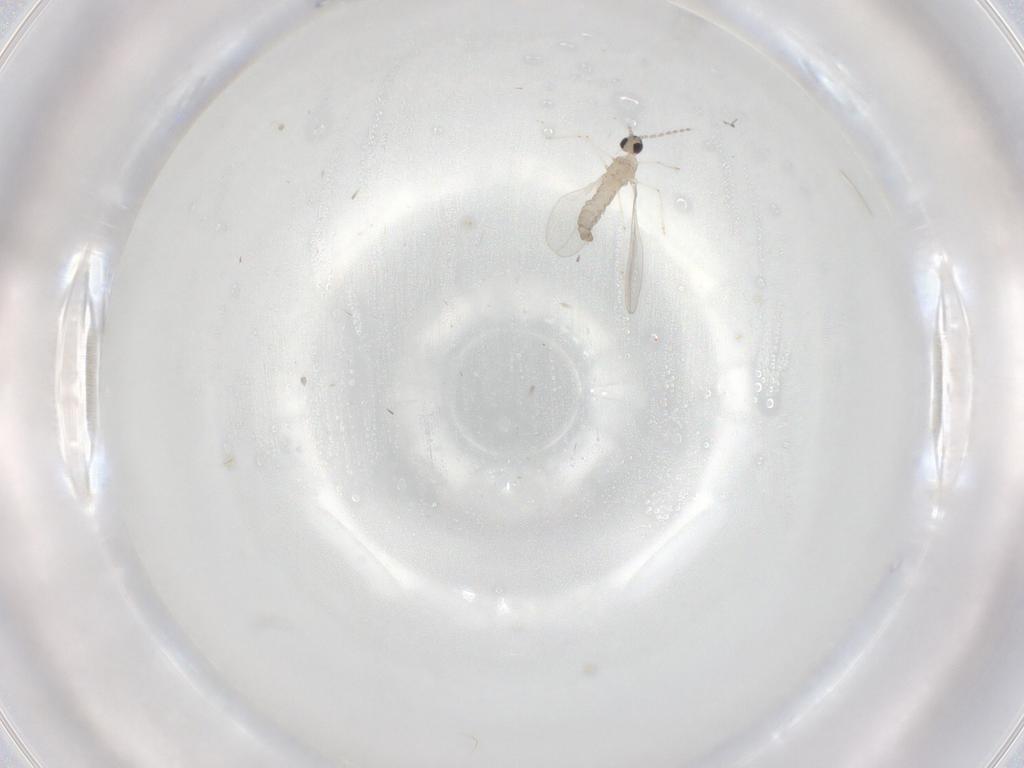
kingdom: Animalia
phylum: Arthropoda
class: Insecta
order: Diptera
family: Cecidomyiidae
